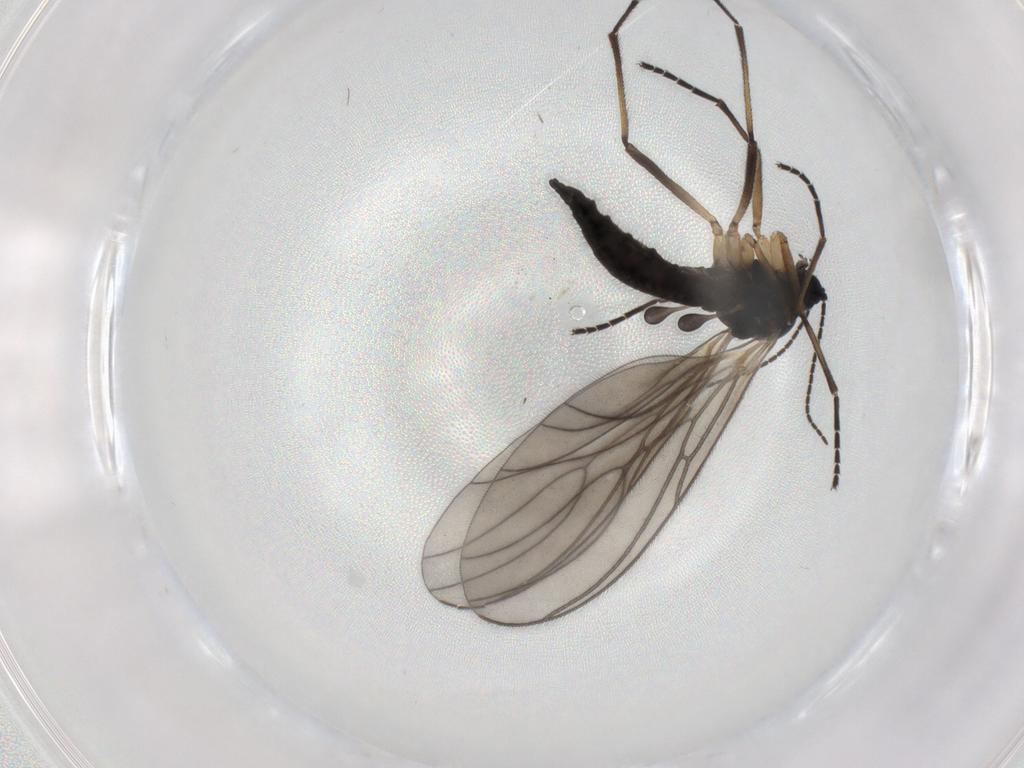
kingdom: Animalia
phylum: Arthropoda
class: Insecta
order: Diptera
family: Sciaridae
